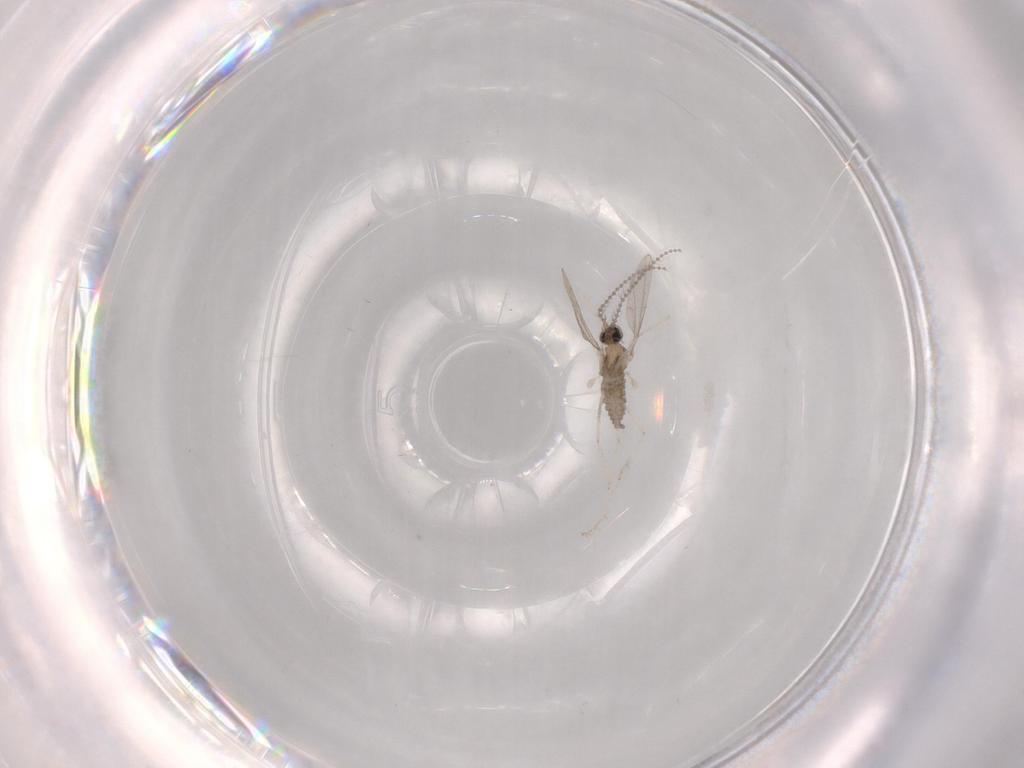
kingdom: Animalia
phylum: Arthropoda
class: Insecta
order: Diptera
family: Cecidomyiidae
